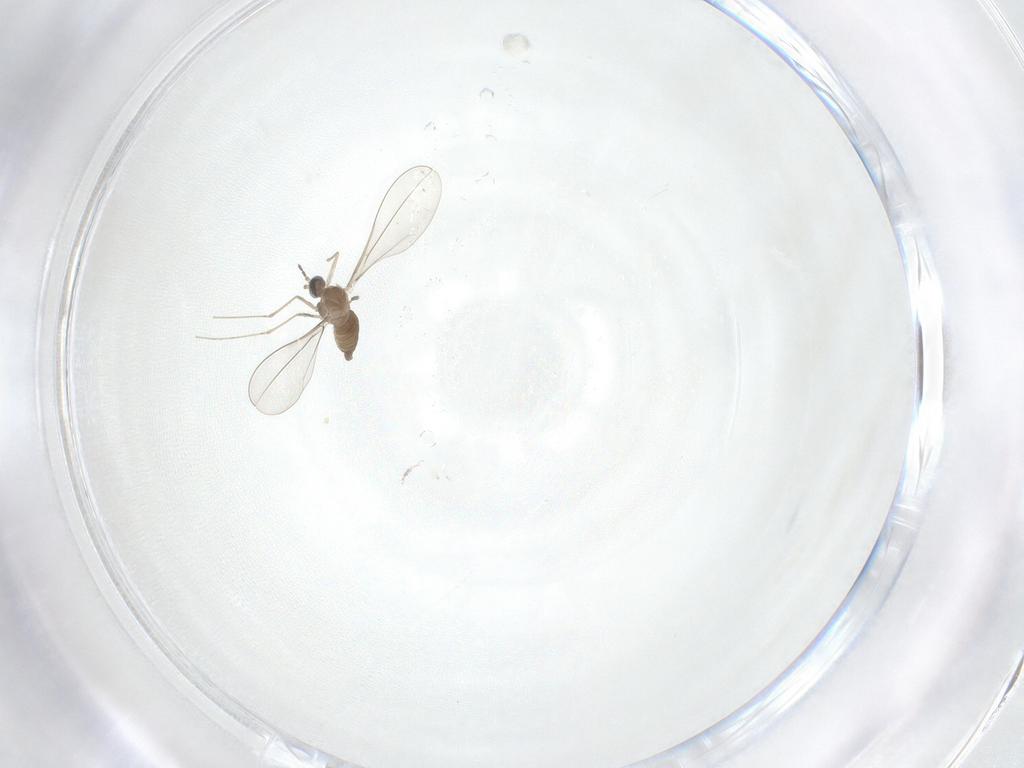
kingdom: Animalia
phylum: Arthropoda
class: Insecta
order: Diptera
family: Phoridae
